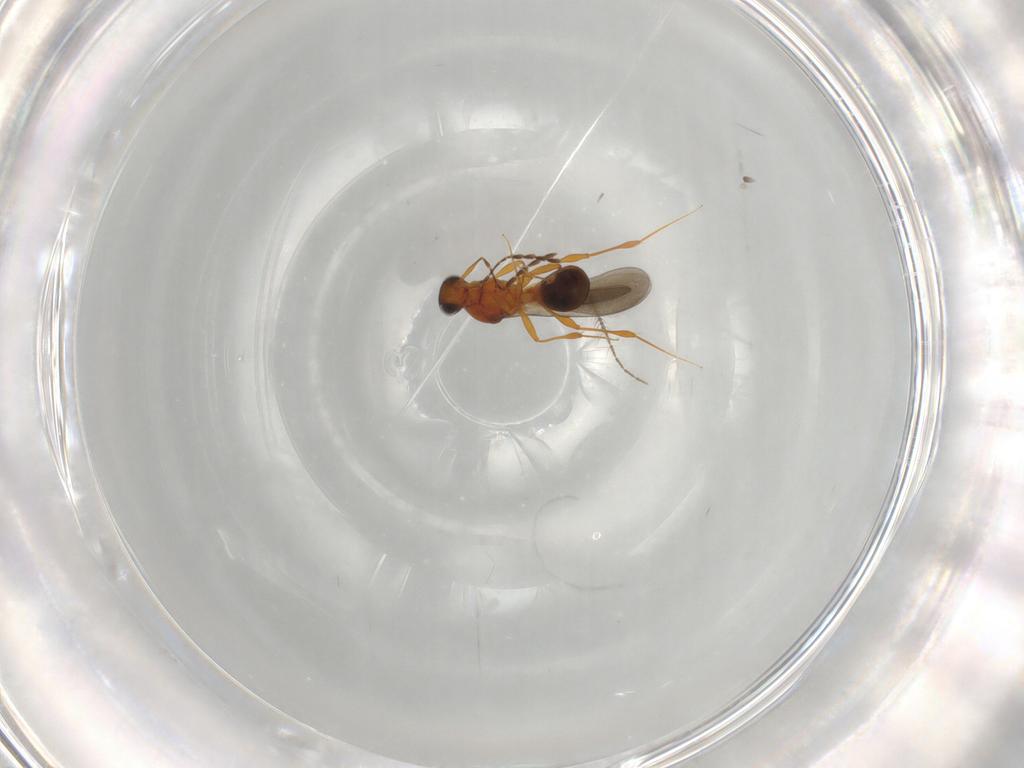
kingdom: Animalia
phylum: Arthropoda
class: Insecta
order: Hymenoptera
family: Platygastridae
